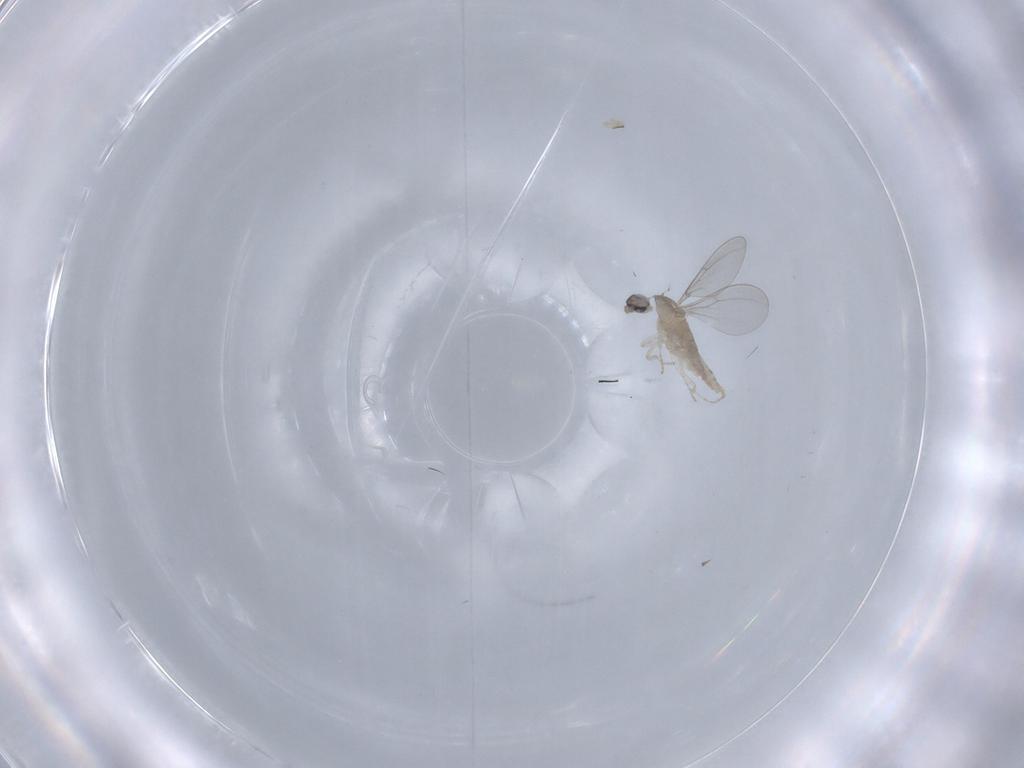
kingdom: Animalia
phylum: Arthropoda
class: Insecta
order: Diptera
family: Cecidomyiidae
